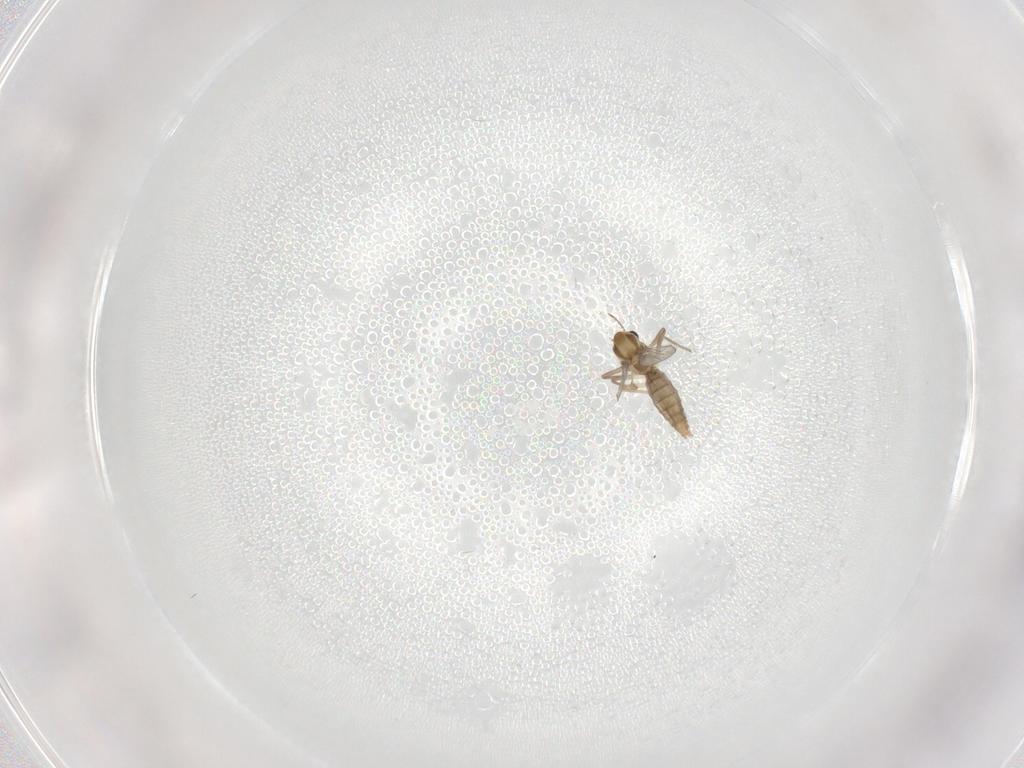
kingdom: Animalia
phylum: Arthropoda
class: Insecta
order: Diptera
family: Chironomidae
